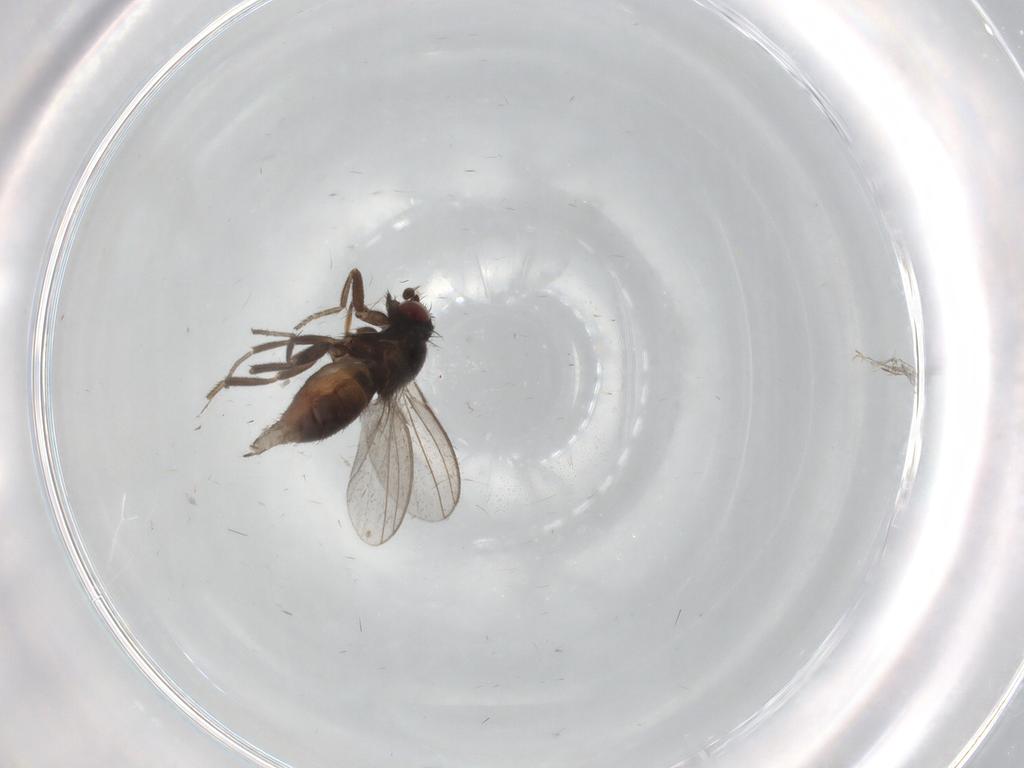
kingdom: Animalia
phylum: Arthropoda
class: Insecta
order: Diptera
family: Milichiidae
